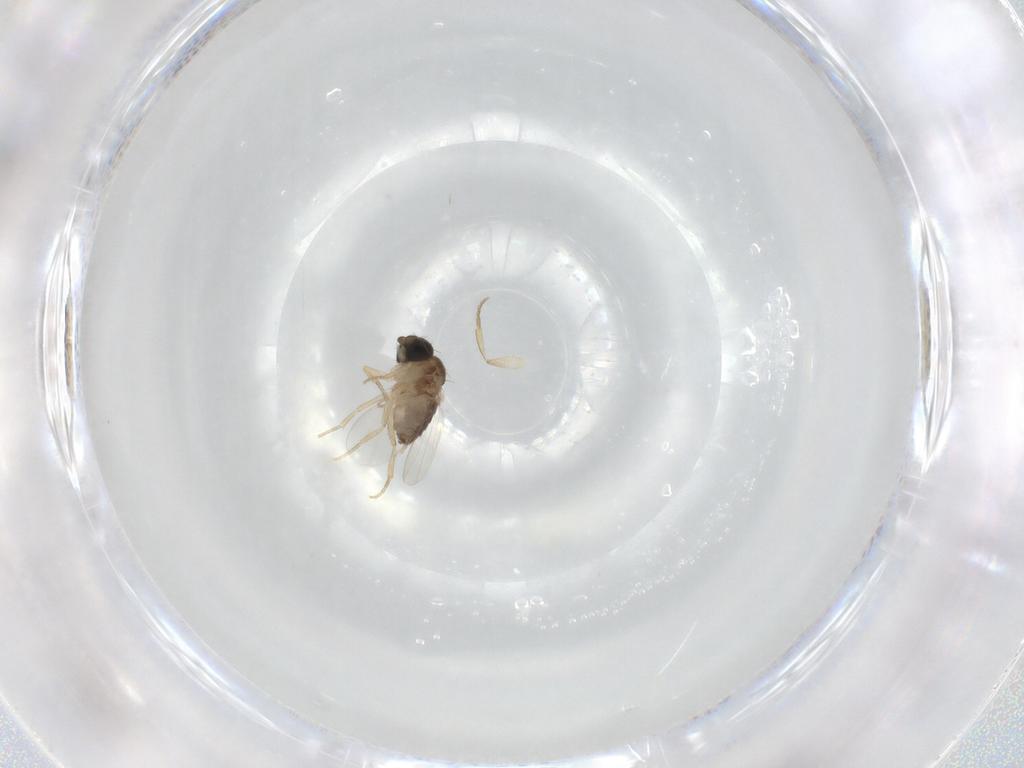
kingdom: Animalia
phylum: Arthropoda
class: Insecta
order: Diptera
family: Phoridae
